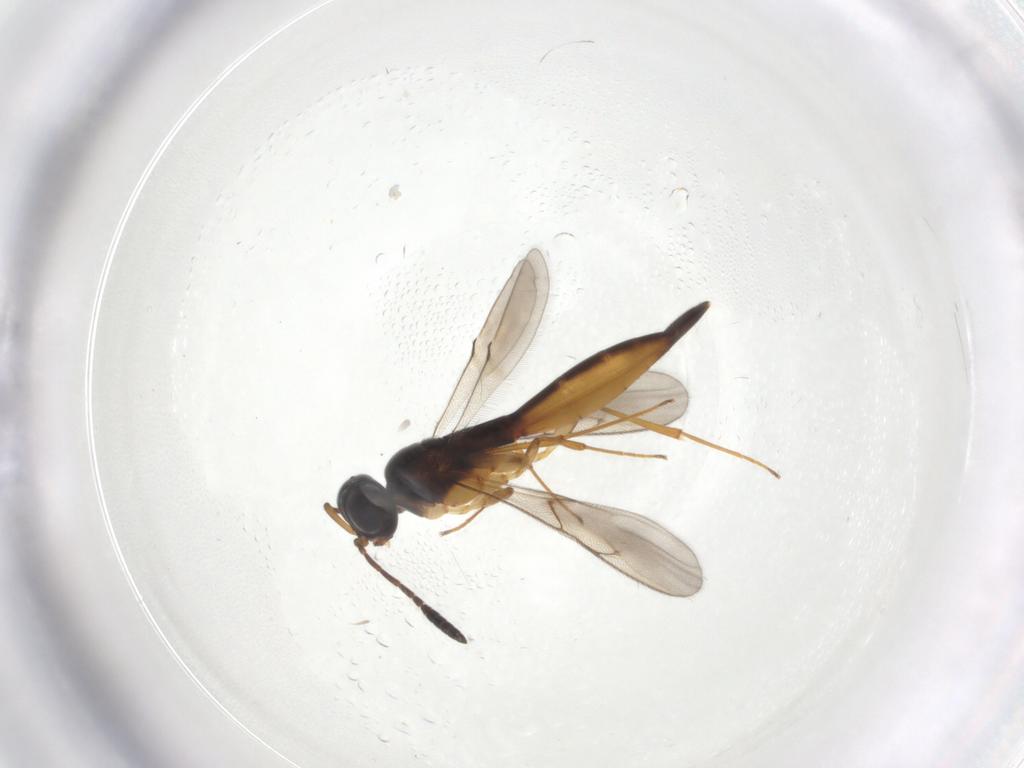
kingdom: Animalia
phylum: Arthropoda
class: Insecta
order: Hymenoptera
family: Scelionidae
